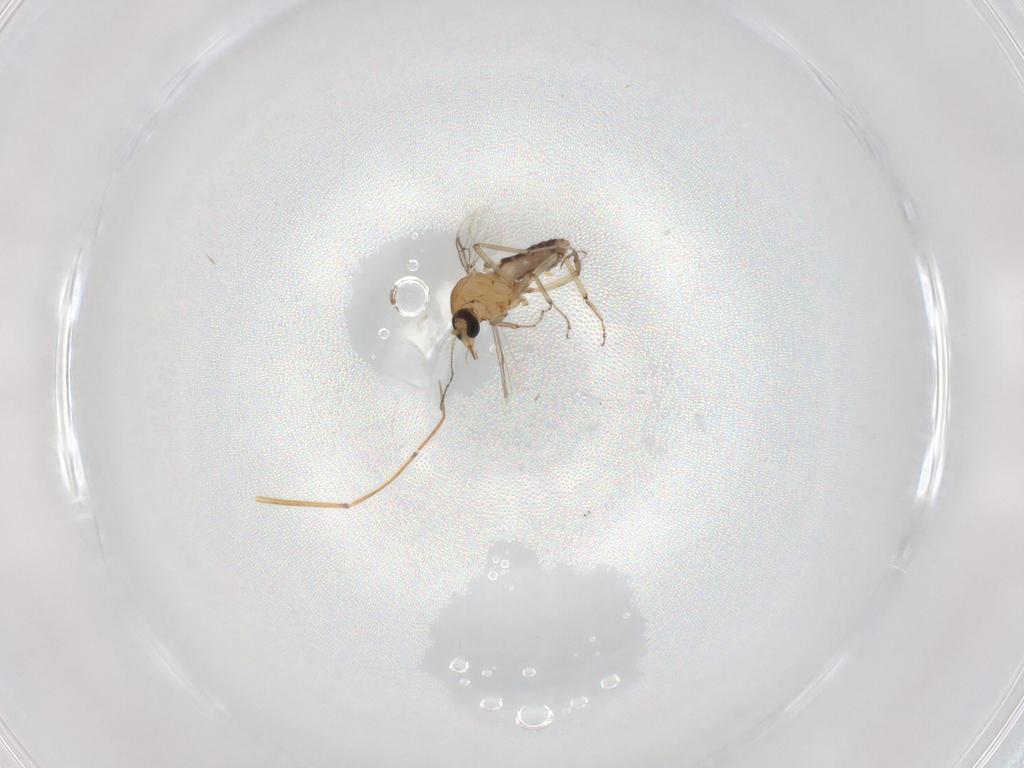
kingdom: Animalia
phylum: Arthropoda
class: Insecta
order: Diptera
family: Ceratopogonidae
